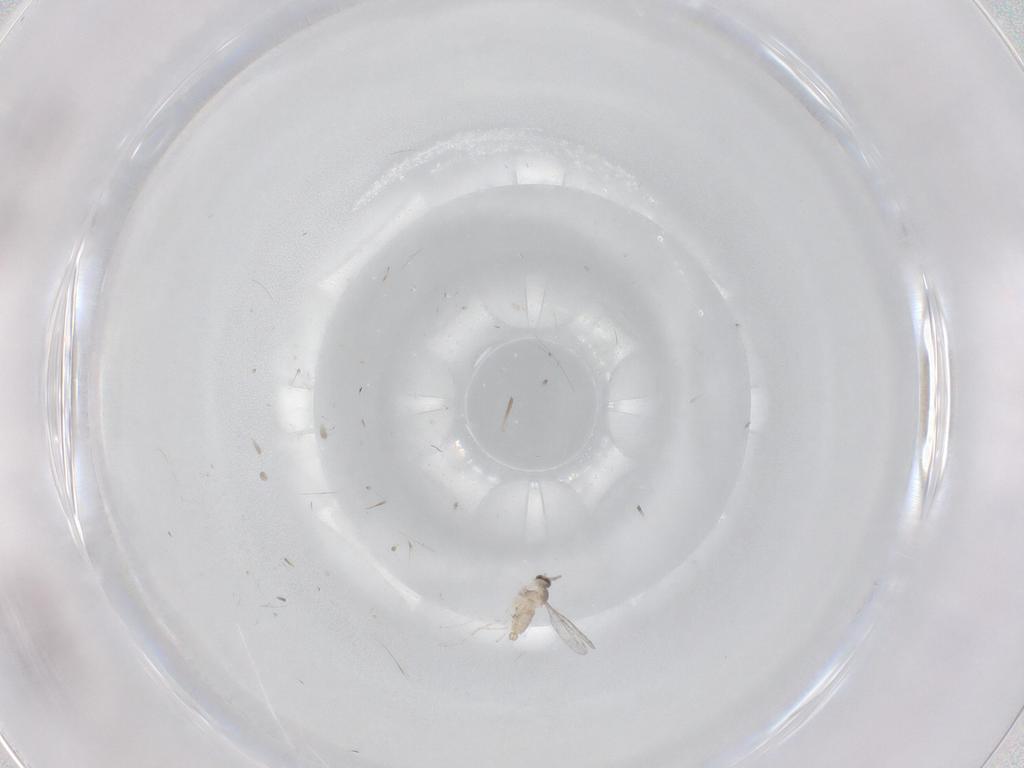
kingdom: Animalia
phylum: Arthropoda
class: Insecta
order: Diptera
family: Cecidomyiidae
